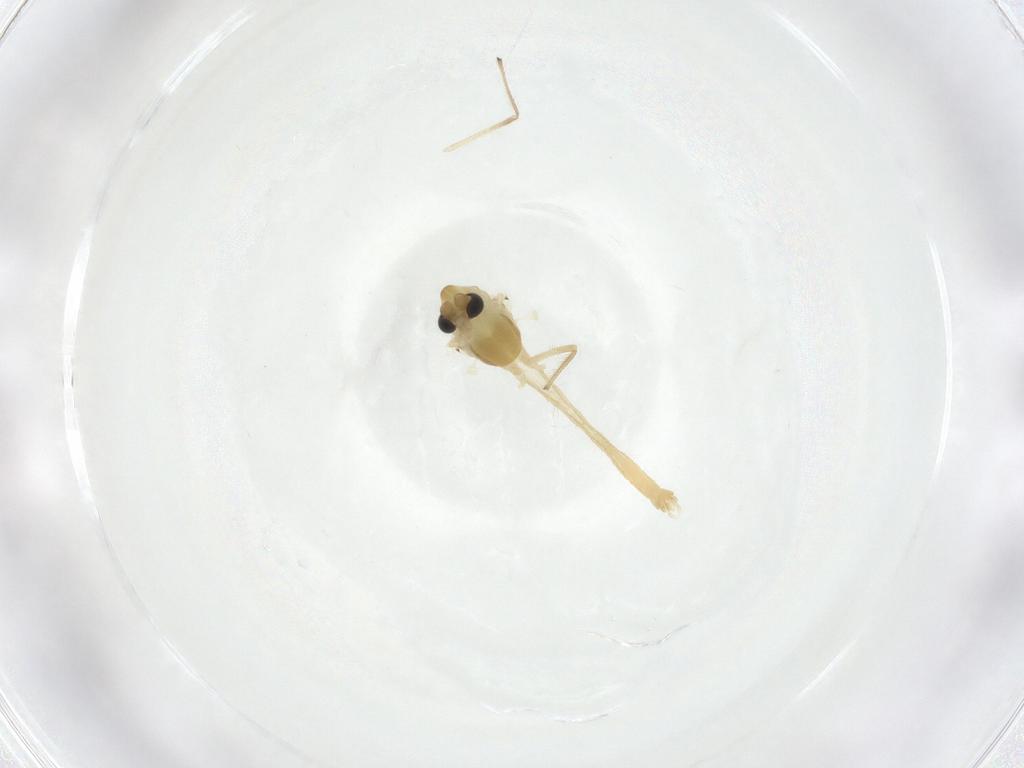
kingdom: Animalia
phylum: Arthropoda
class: Insecta
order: Diptera
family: Chironomidae
